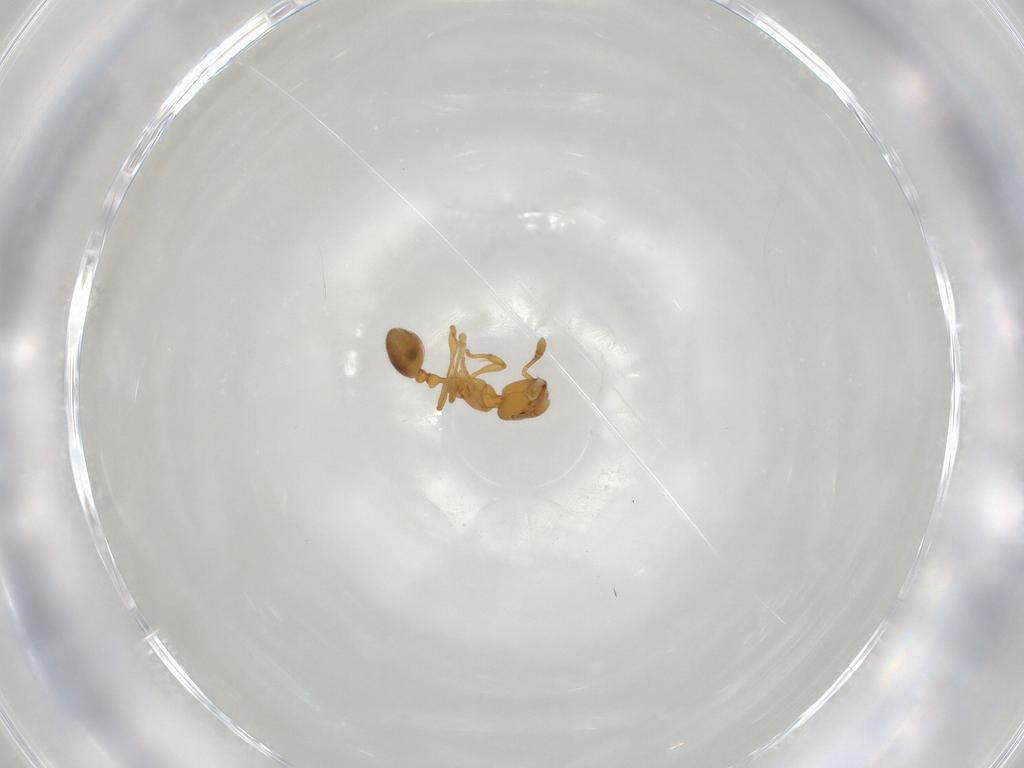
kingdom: Animalia
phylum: Arthropoda
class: Insecta
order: Hymenoptera
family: Formicidae
